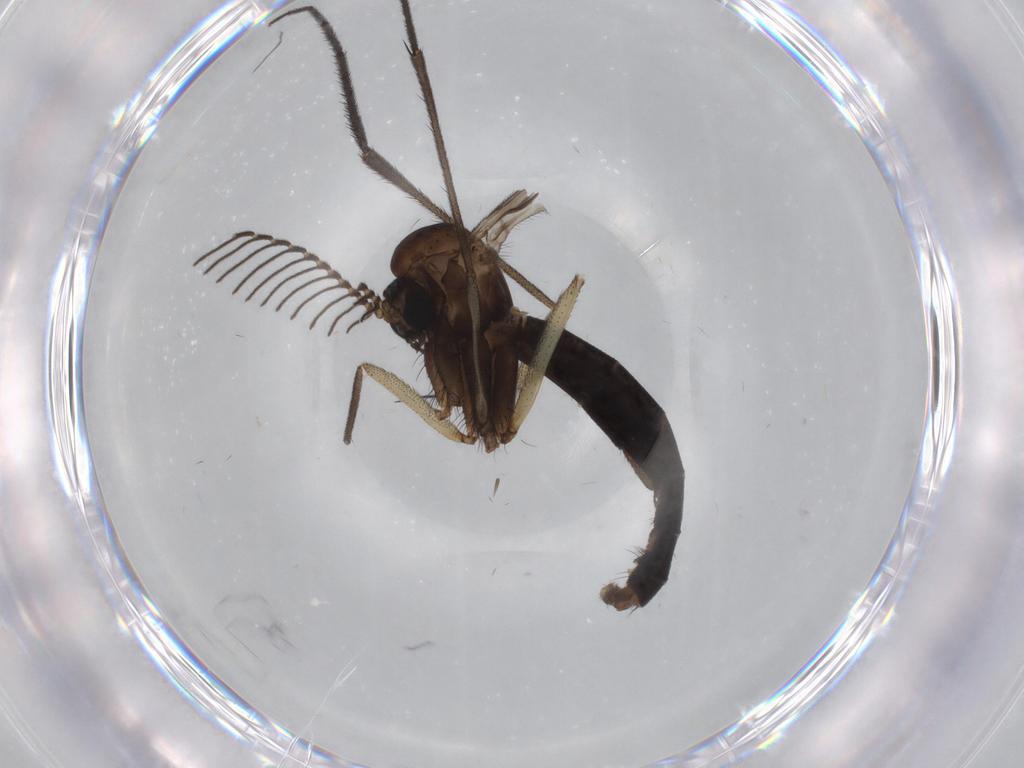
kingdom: Animalia
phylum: Arthropoda
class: Insecta
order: Diptera
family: Sciaridae
